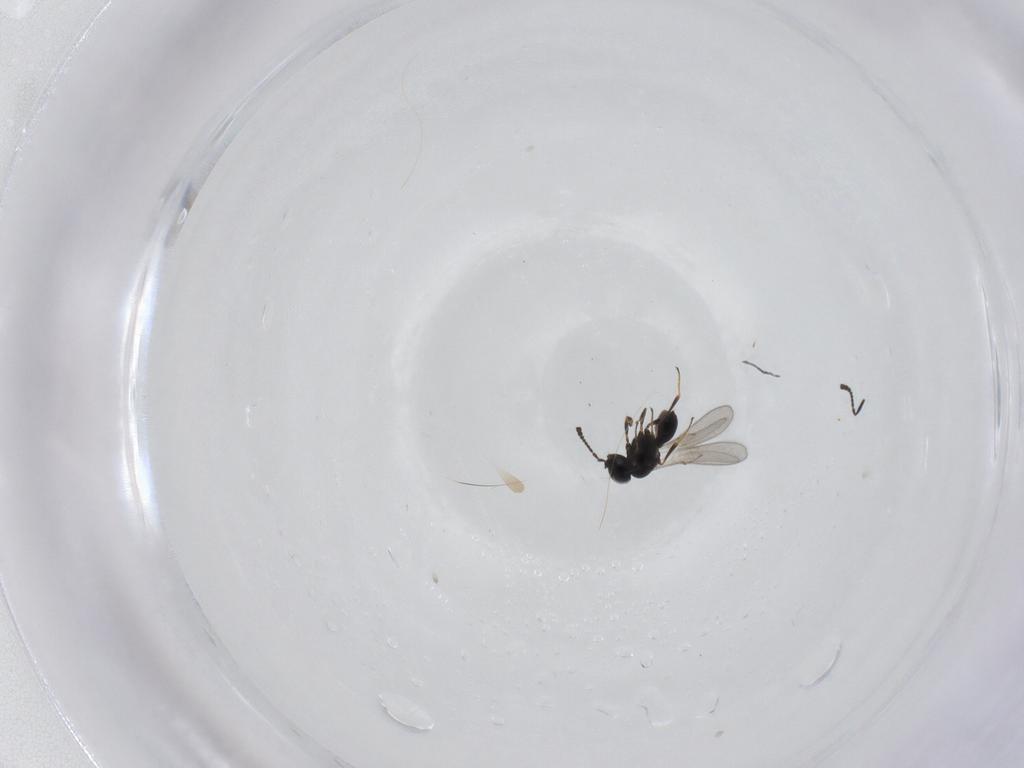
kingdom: Animalia
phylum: Arthropoda
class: Insecta
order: Hymenoptera
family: Scelionidae
